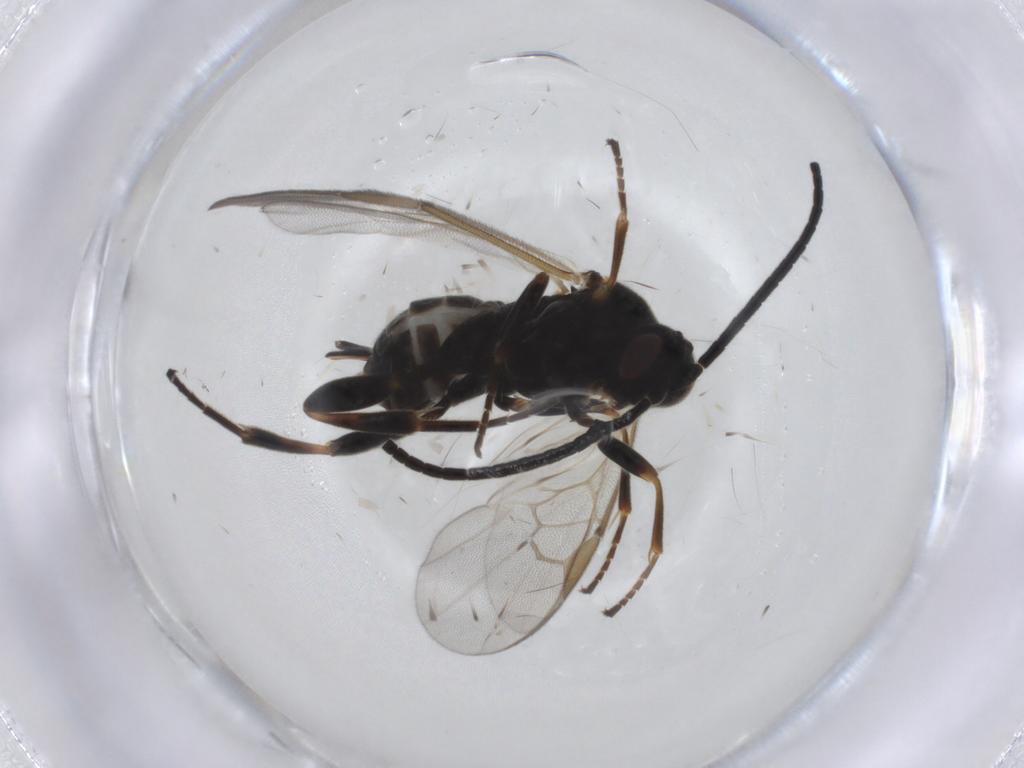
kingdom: Animalia
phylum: Arthropoda
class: Insecta
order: Hymenoptera
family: Braconidae
